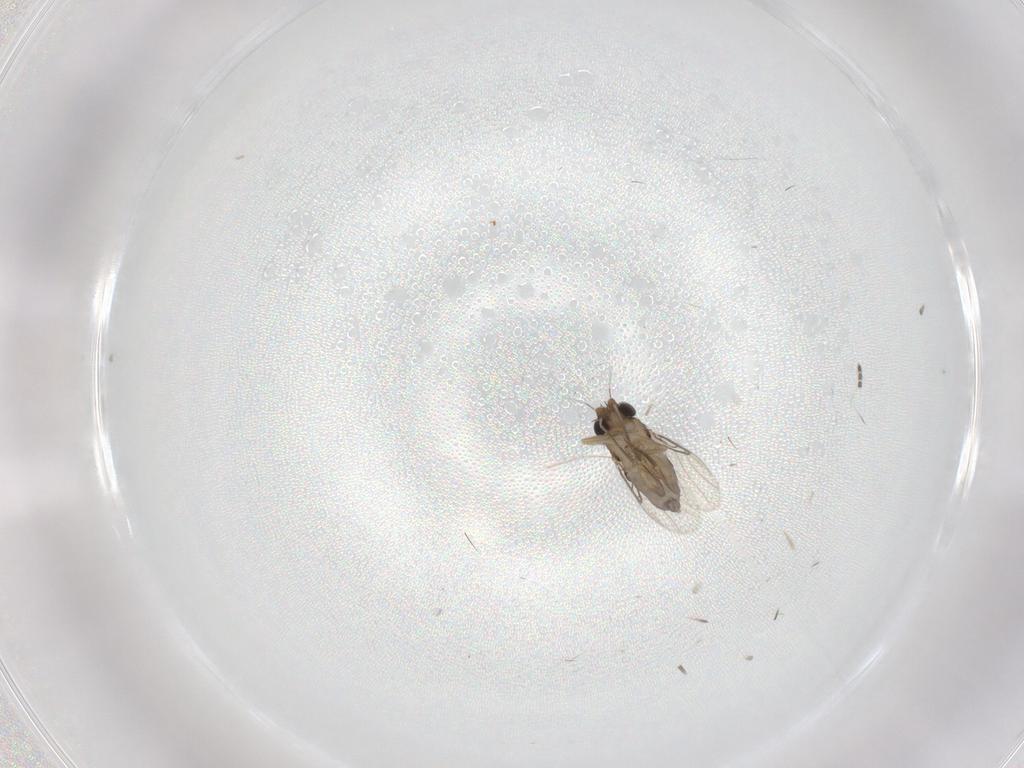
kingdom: Animalia
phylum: Arthropoda
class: Insecta
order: Diptera
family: Phoridae
